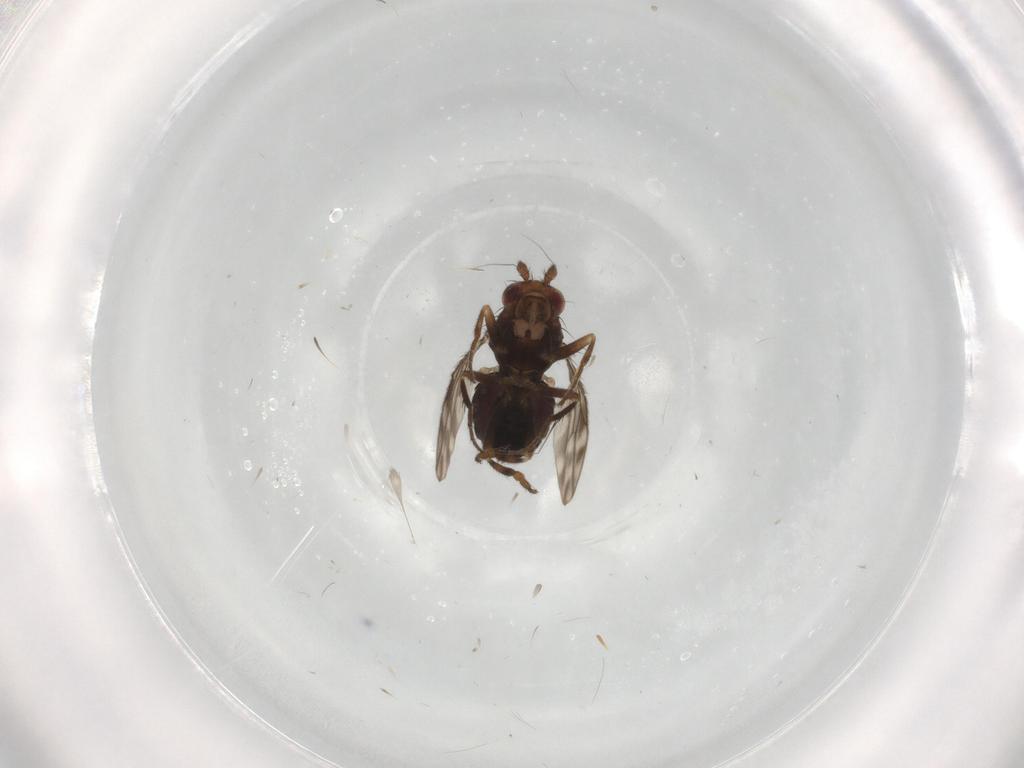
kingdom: Animalia
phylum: Arthropoda
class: Insecta
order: Diptera
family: Sphaeroceridae
